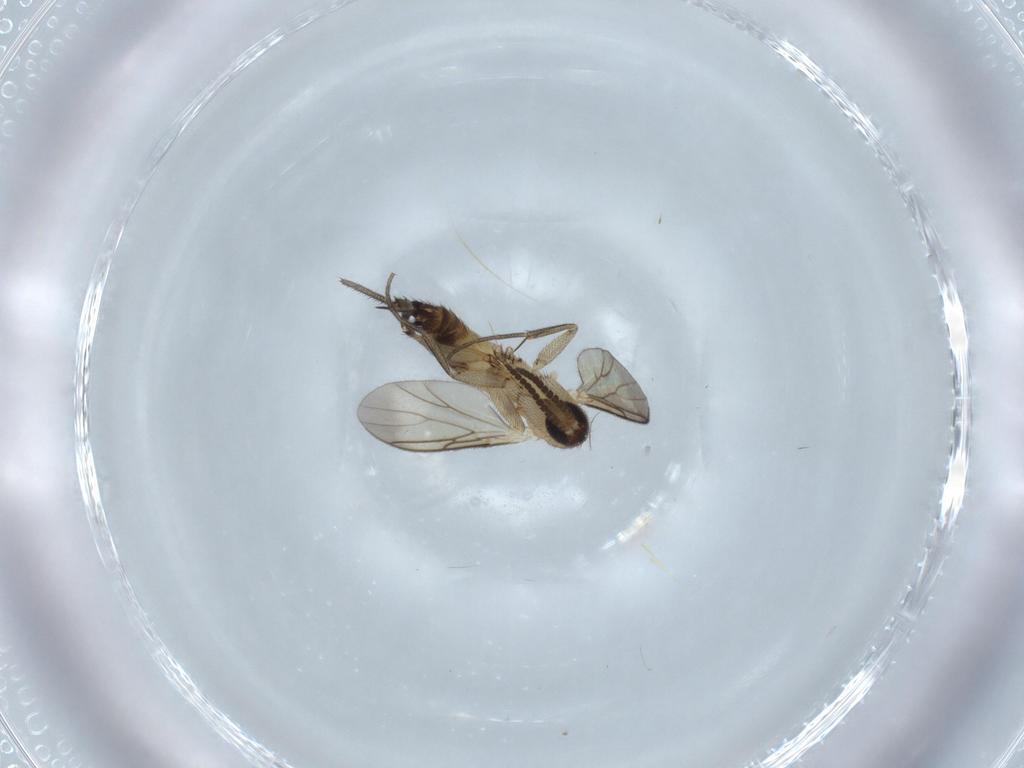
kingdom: Animalia
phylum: Arthropoda
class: Insecta
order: Diptera
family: Mycetophilidae
